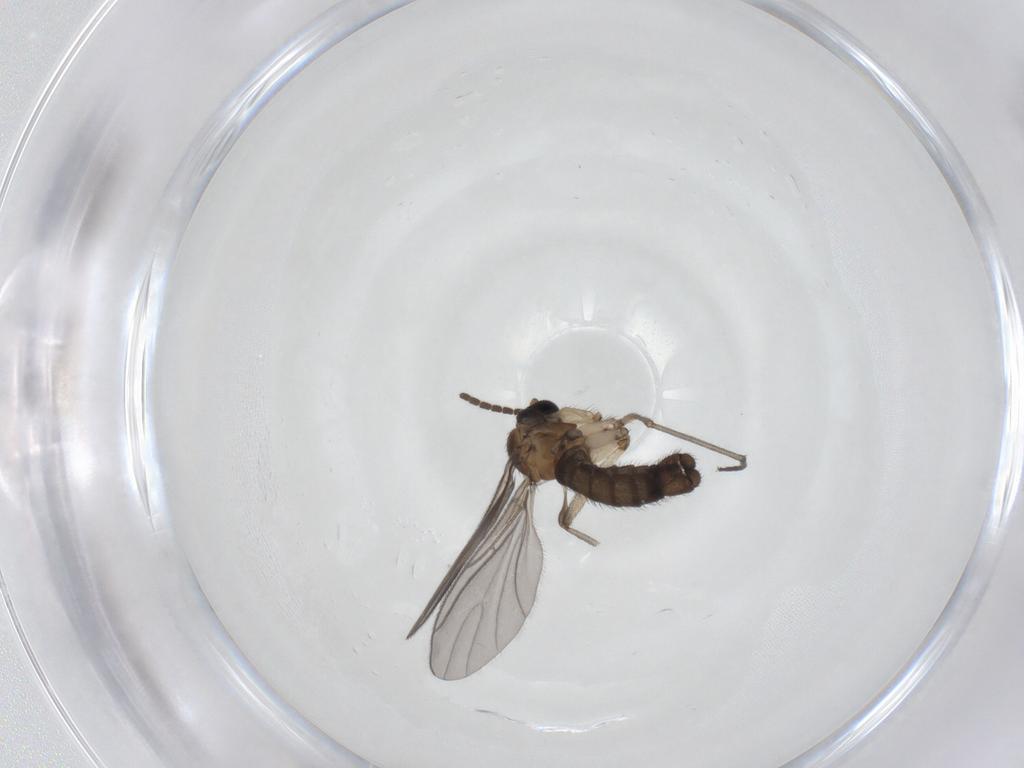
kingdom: Animalia
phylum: Arthropoda
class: Insecta
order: Diptera
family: Sciaridae
